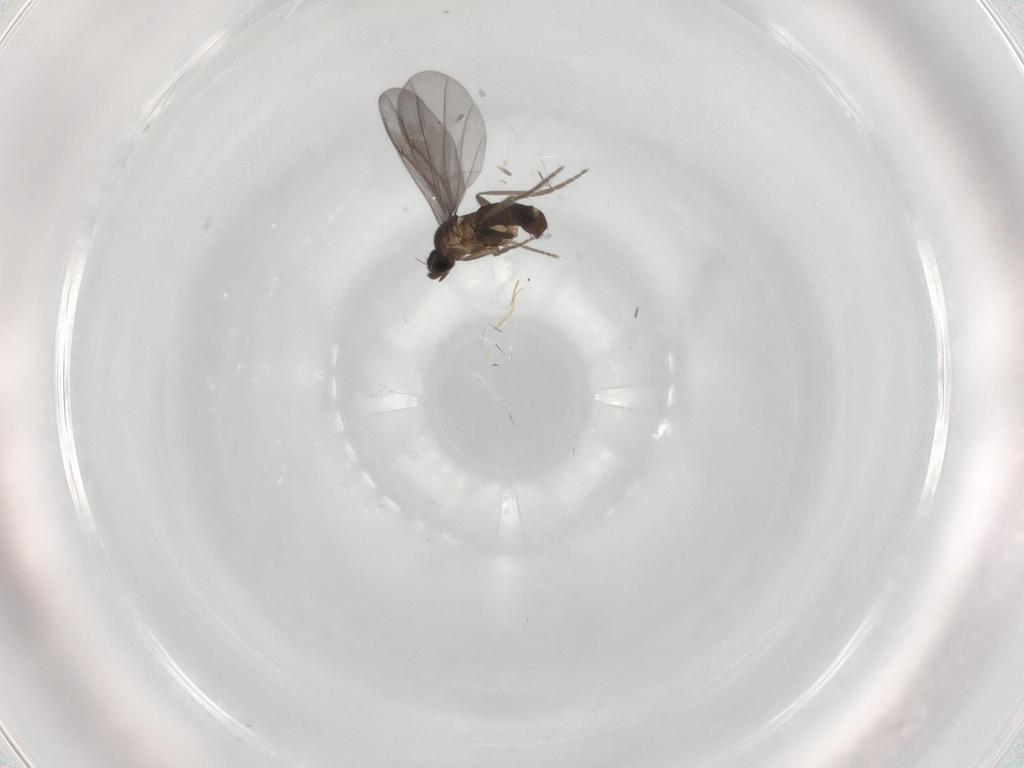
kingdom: Animalia
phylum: Arthropoda
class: Insecta
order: Diptera
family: Phoridae
